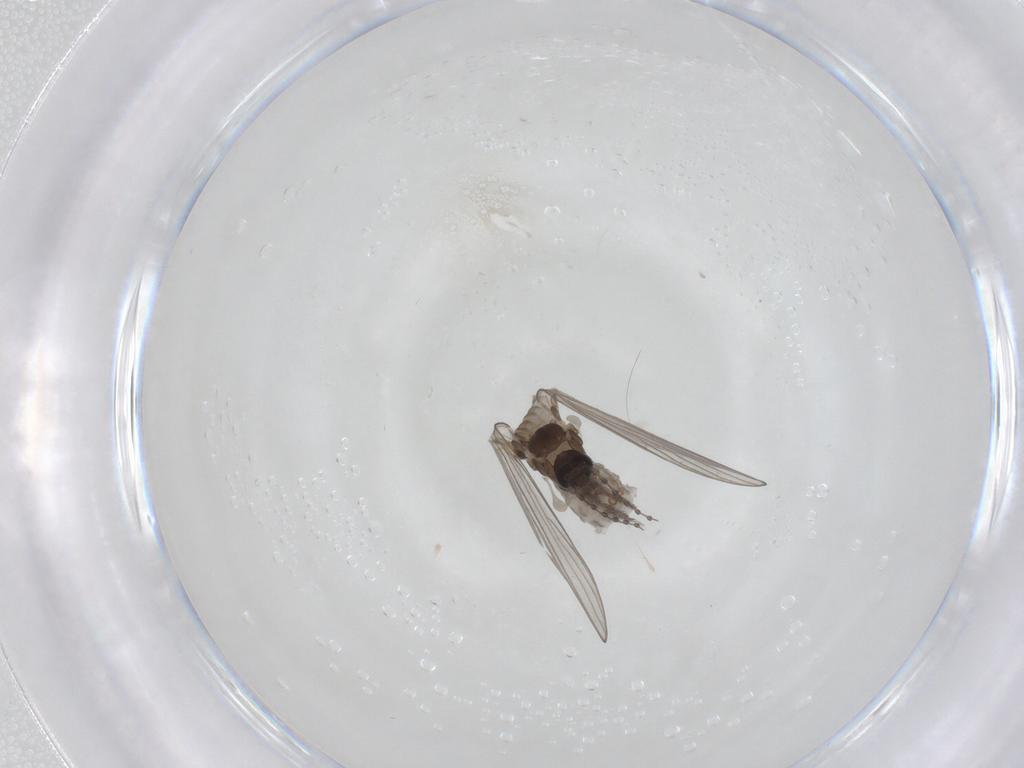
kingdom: Animalia
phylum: Arthropoda
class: Insecta
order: Diptera
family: Psychodidae
